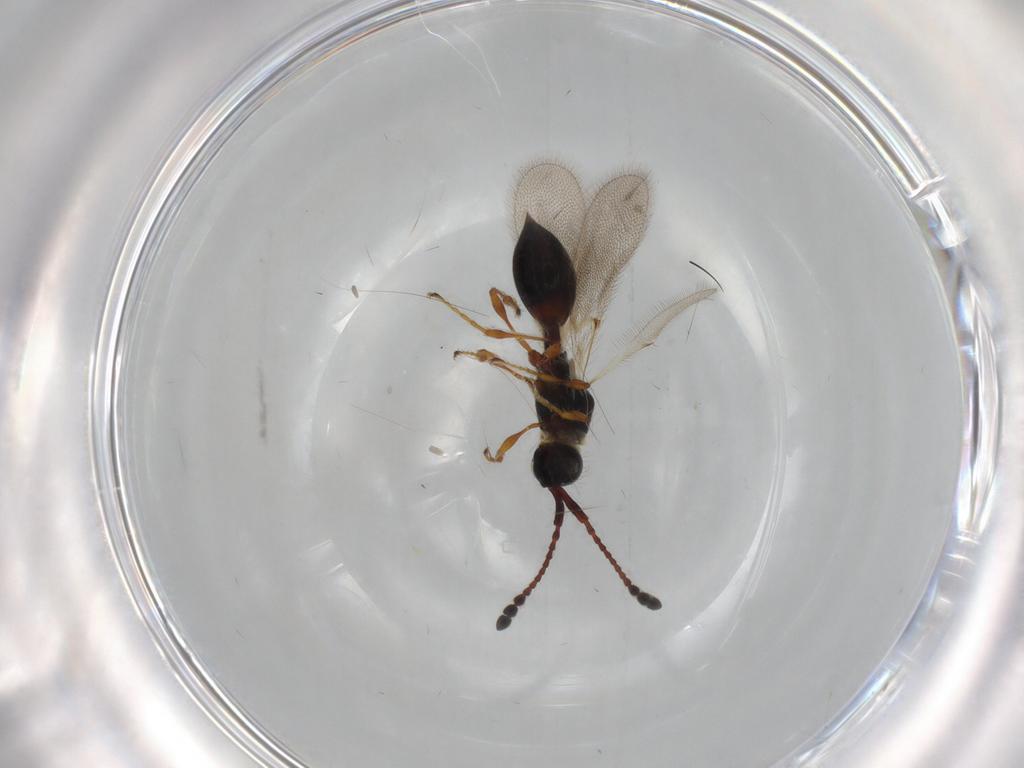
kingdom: Animalia
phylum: Arthropoda
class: Insecta
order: Hymenoptera
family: Diapriidae
